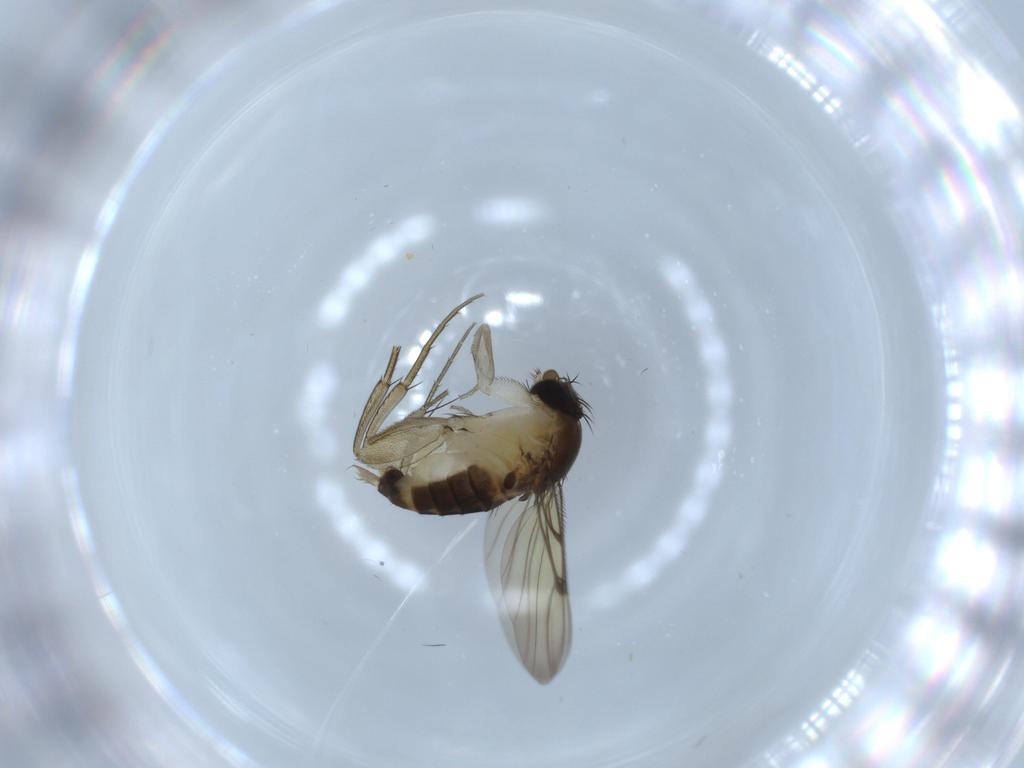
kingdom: Animalia
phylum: Arthropoda
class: Insecta
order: Diptera
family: Phoridae
